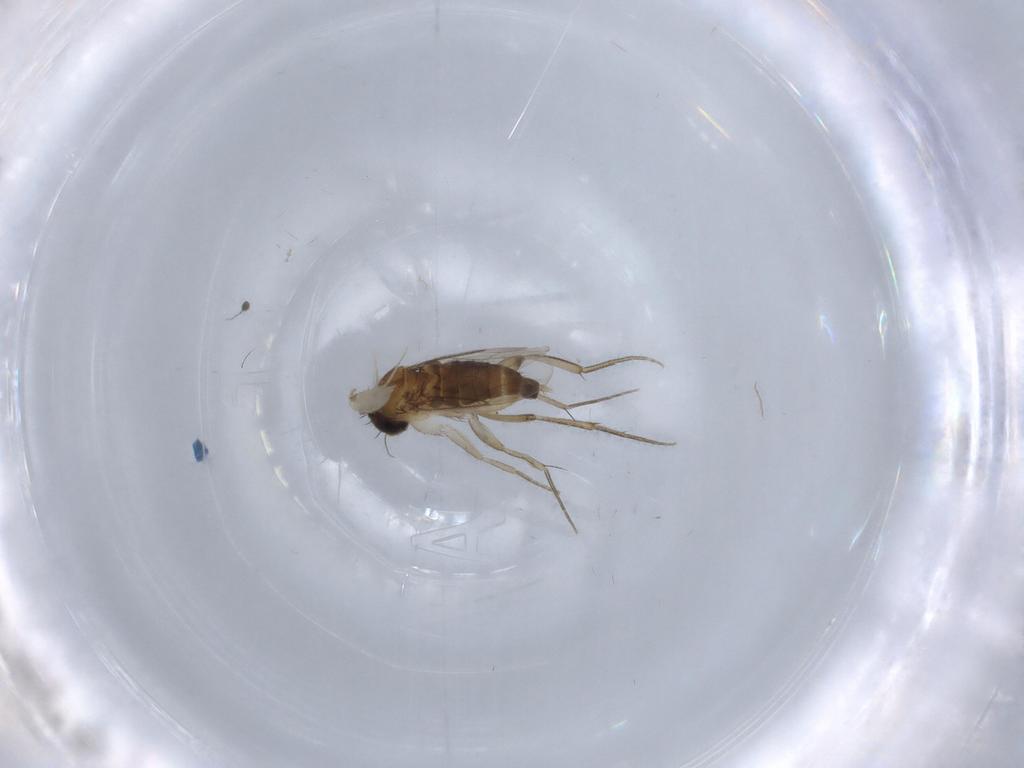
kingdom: Animalia
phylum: Arthropoda
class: Insecta
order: Diptera
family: Phoridae
